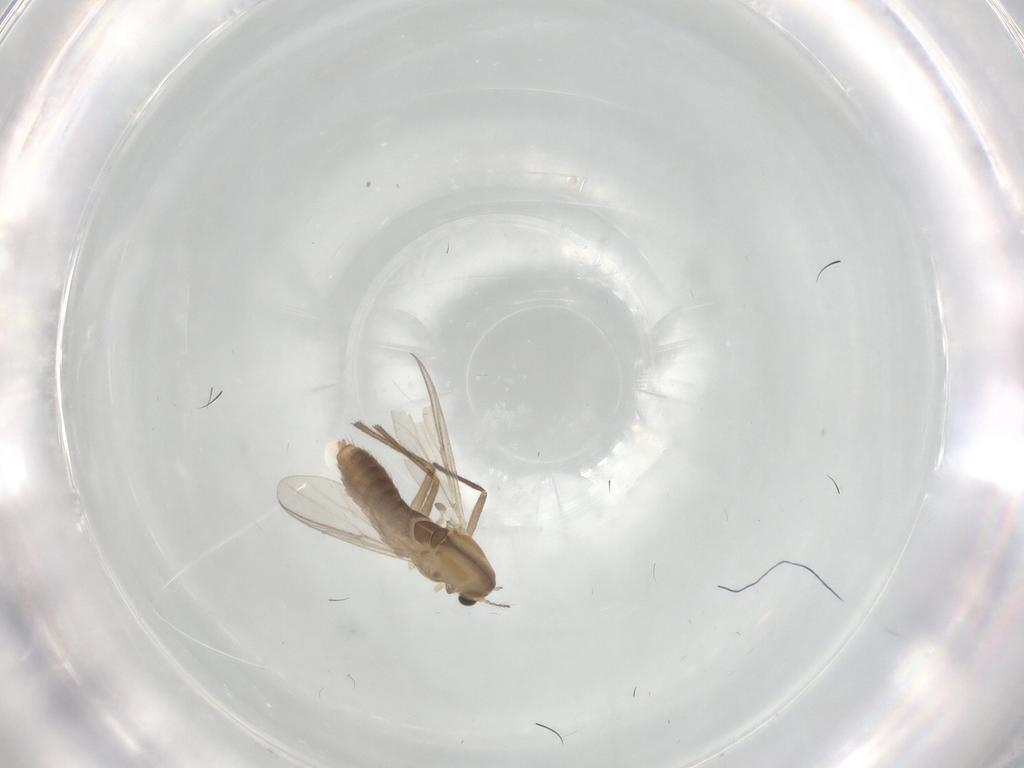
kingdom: Animalia
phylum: Arthropoda
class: Insecta
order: Diptera
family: Chironomidae
